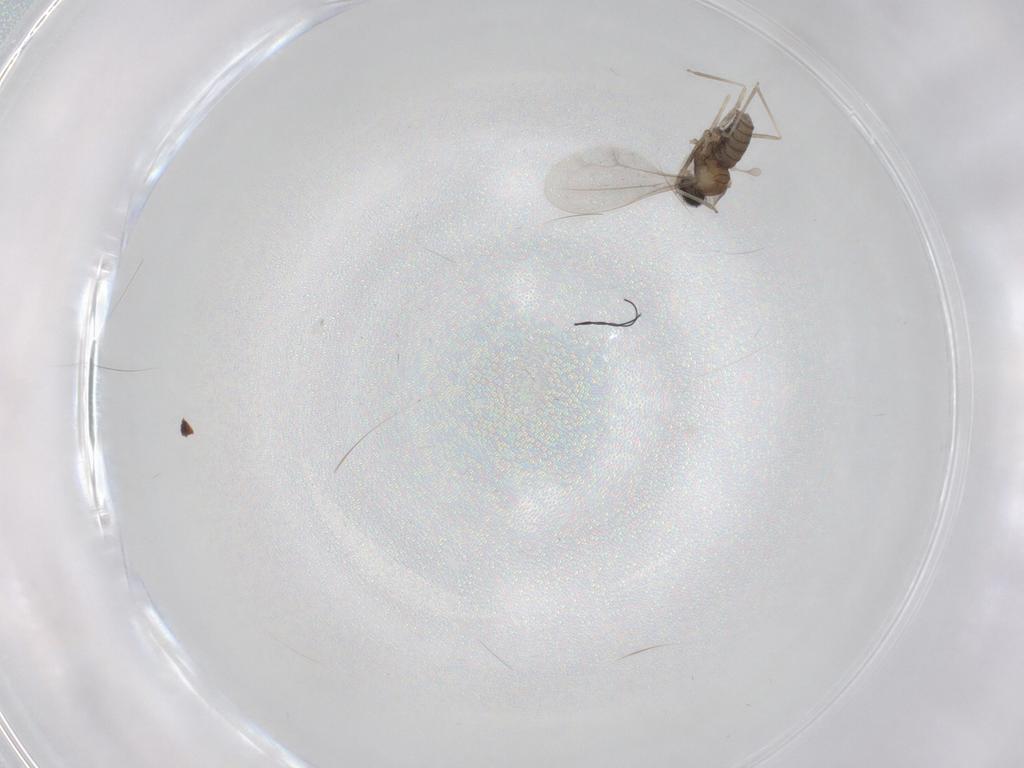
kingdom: Animalia
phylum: Arthropoda
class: Insecta
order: Diptera
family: Cecidomyiidae
